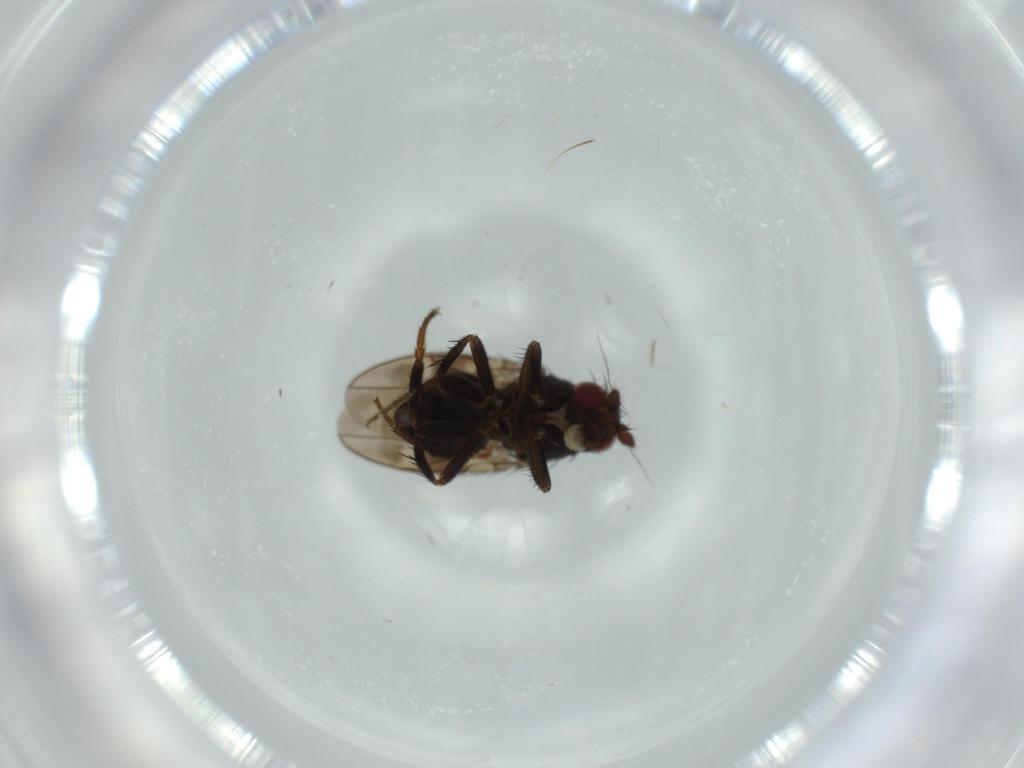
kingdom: Animalia
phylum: Arthropoda
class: Insecta
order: Diptera
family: Sphaeroceridae
